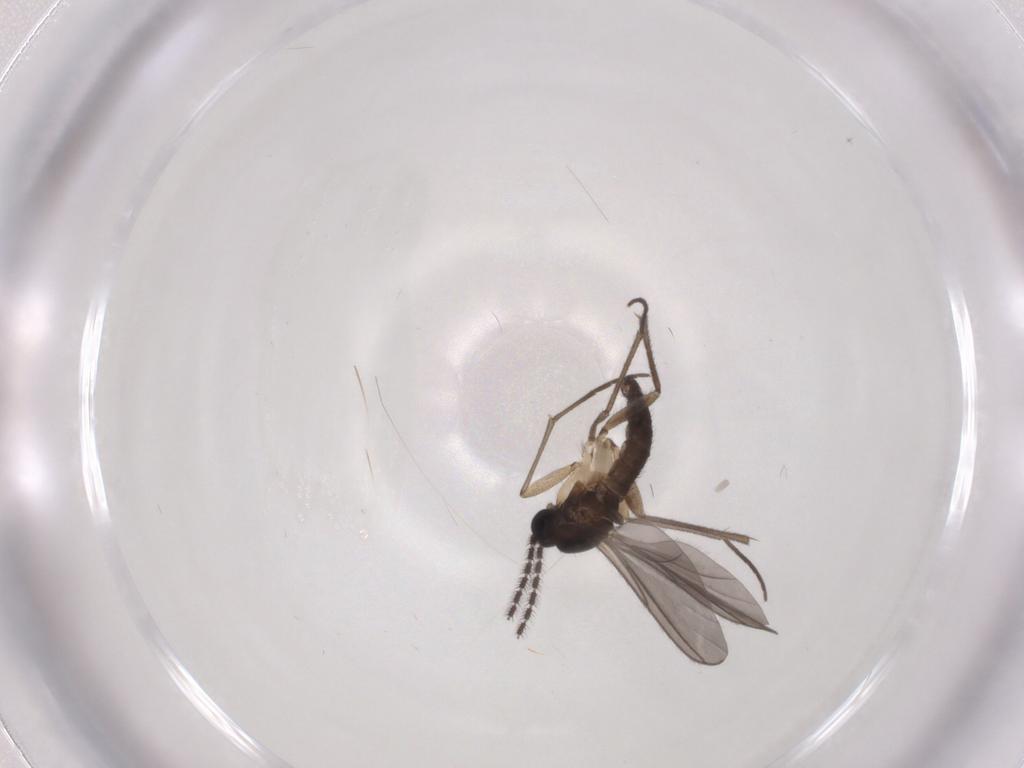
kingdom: Animalia
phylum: Arthropoda
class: Insecta
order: Diptera
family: Sciaridae
